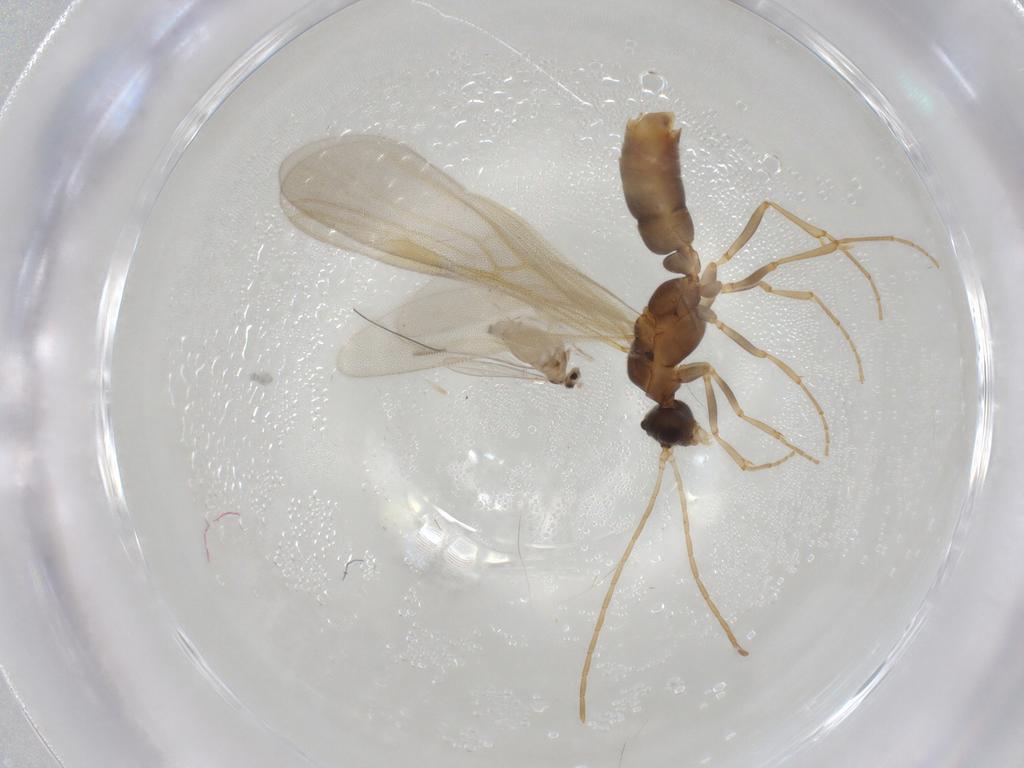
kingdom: Animalia
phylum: Arthropoda
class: Insecta
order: Hymenoptera
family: Formicidae
